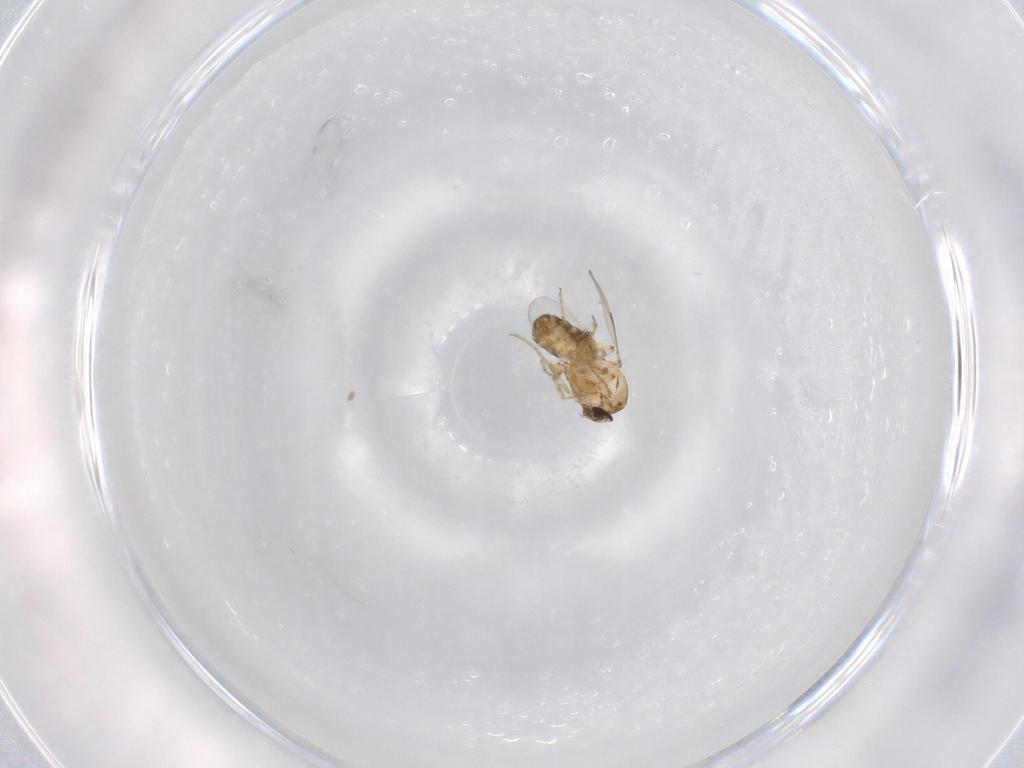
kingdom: Animalia
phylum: Arthropoda
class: Insecta
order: Diptera
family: Ceratopogonidae
